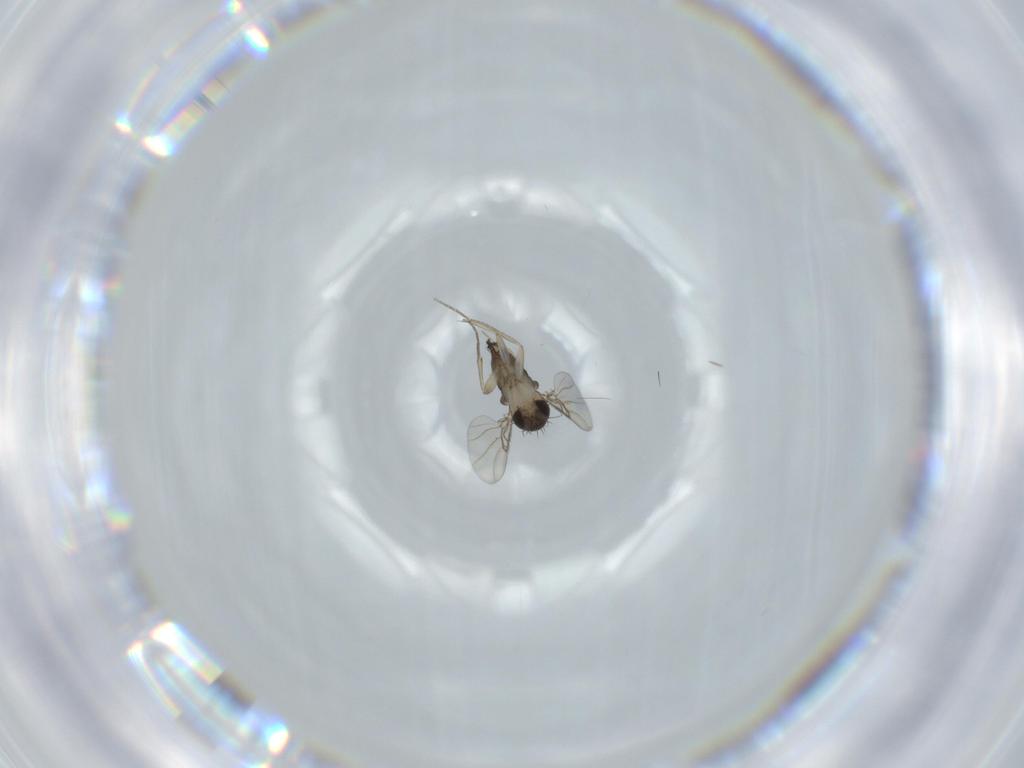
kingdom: Animalia
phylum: Arthropoda
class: Insecta
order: Diptera
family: Phoridae
